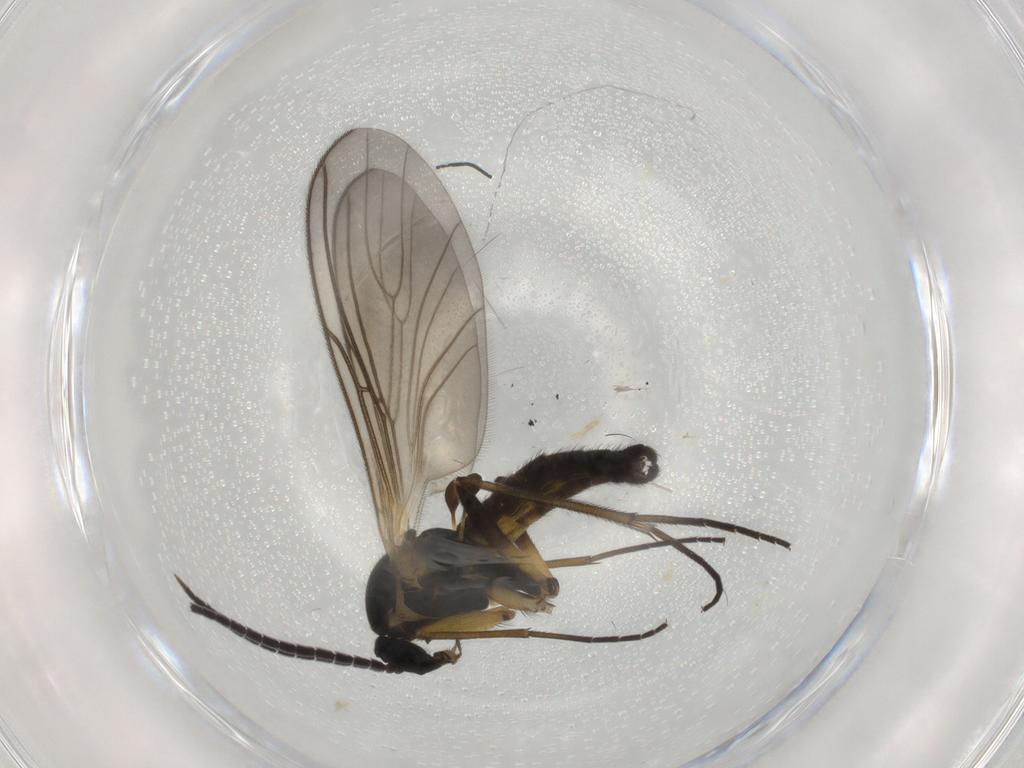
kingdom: Animalia
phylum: Arthropoda
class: Insecta
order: Diptera
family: Sciaridae
